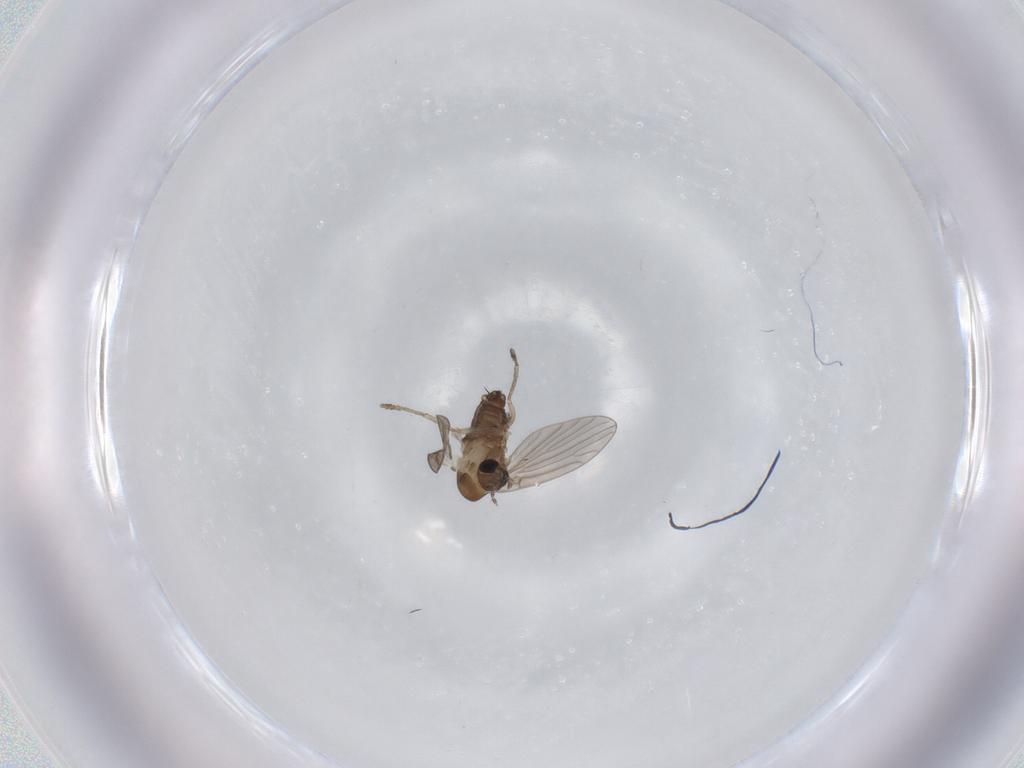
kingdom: Animalia
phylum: Arthropoda
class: Insecta
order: Diptera
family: Psychodidae
